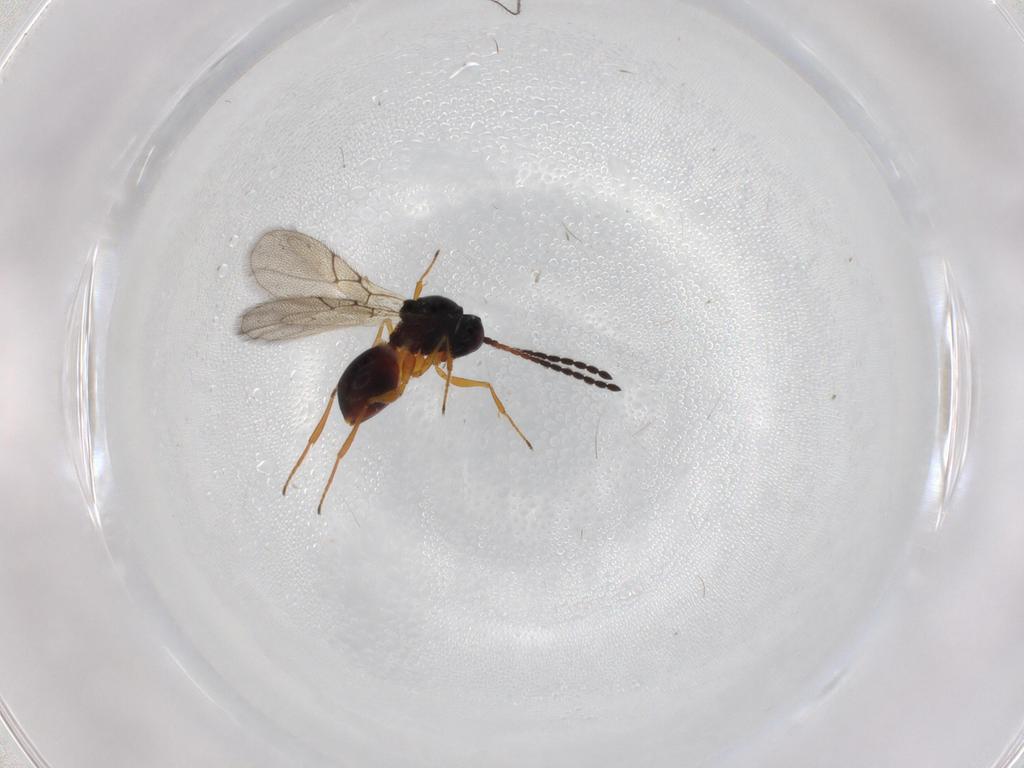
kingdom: Animalia
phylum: Arthropoda
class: Insecta
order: Hymenoptera
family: Figitidae
